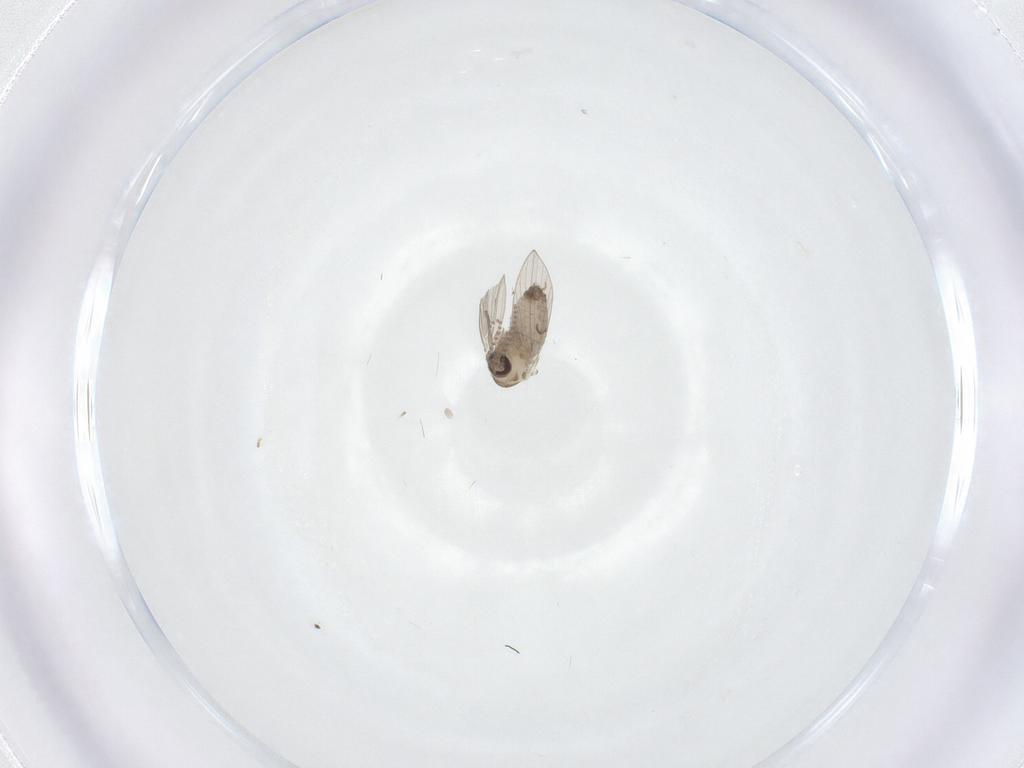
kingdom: Animalia
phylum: Arthropoda
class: Insecta
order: Diptera
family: Psychodidae
